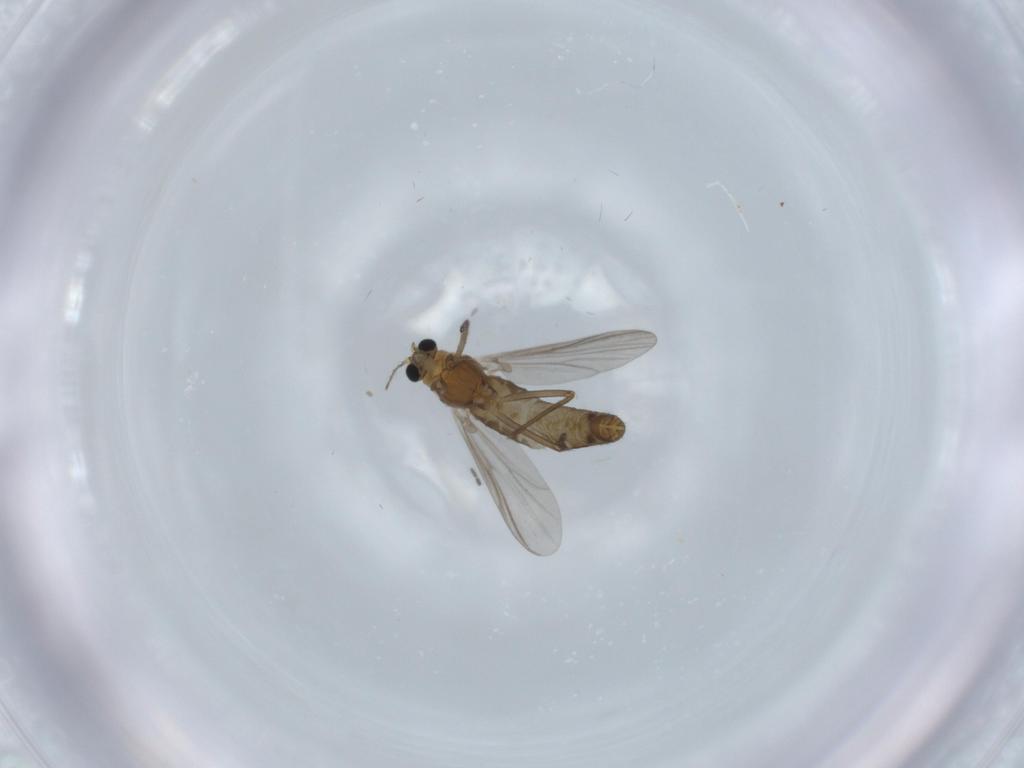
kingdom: Animalia
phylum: Arthropoda
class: Insecta
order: Diptera
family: Chironomidae
